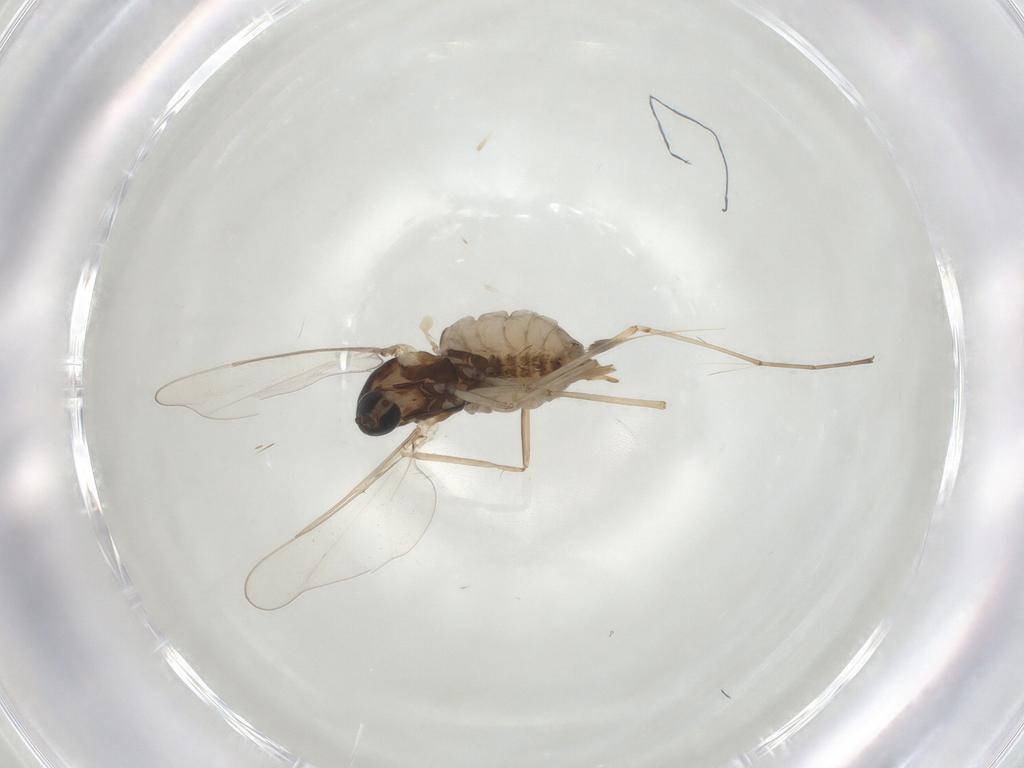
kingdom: Animalia
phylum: Arthropoda
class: Insecta
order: Diptera
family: Cecidomyiidae
